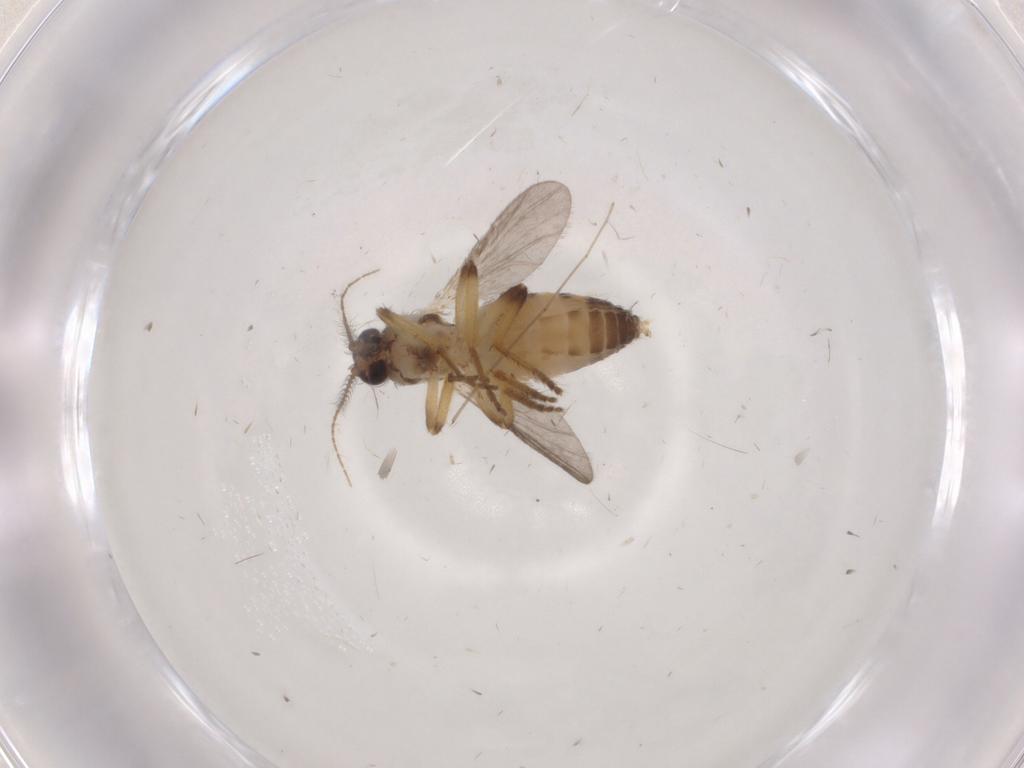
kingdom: Animalia
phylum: Arthropoda
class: Insecta
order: Diptera
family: Ceratopogonidae
